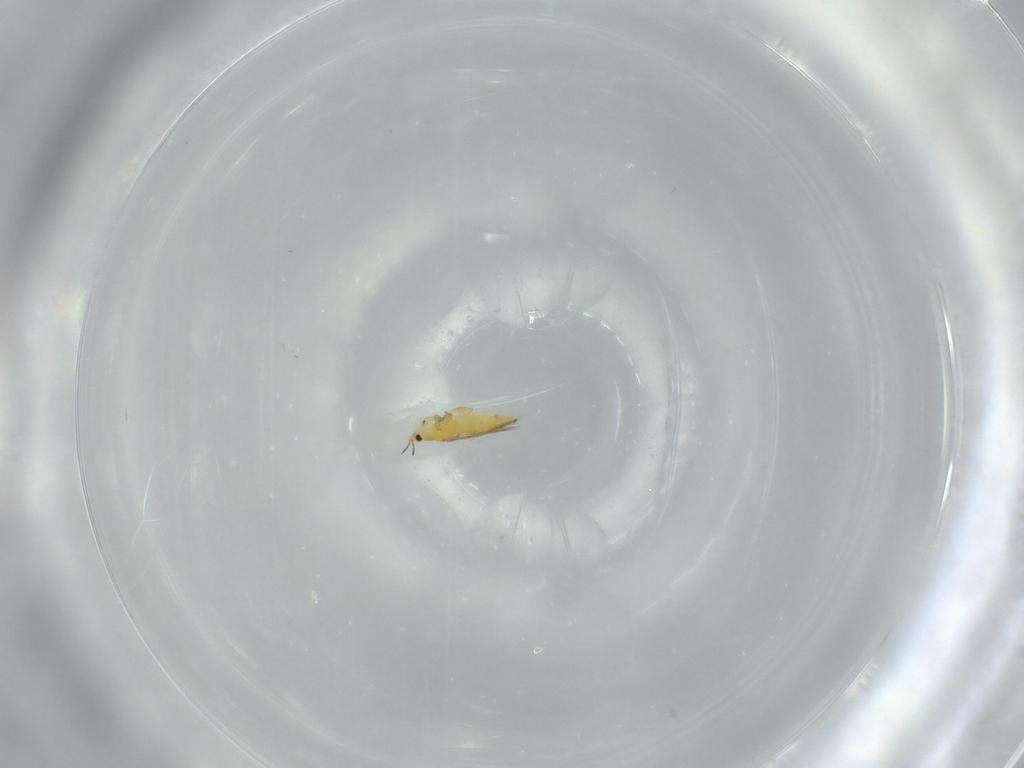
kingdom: Animalia
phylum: Arthropoda
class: Insecta
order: Thysanoptera
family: Thripidae
